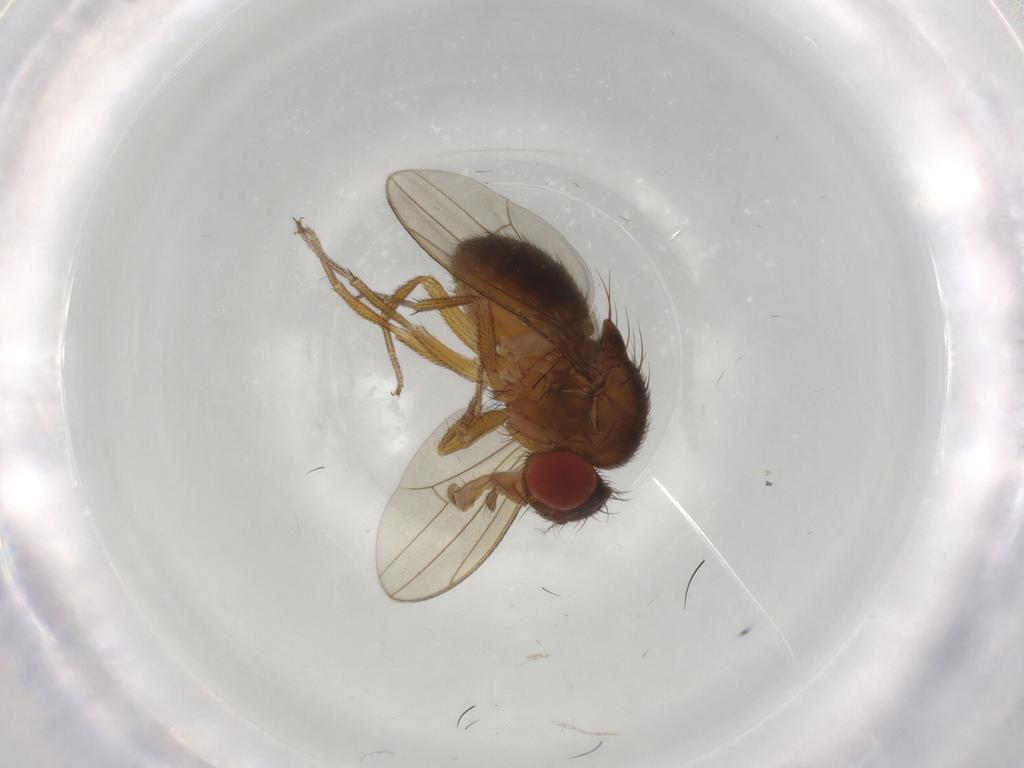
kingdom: Animalia
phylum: Arthropoda
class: Insecta
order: Diptera
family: Drosophilidae
